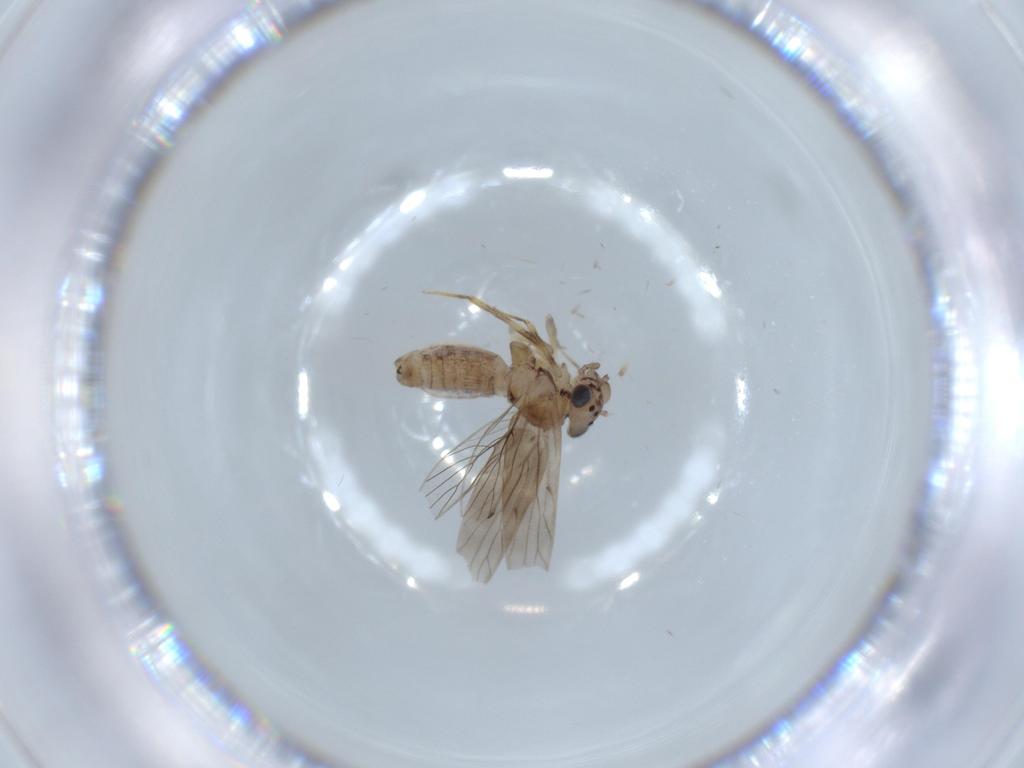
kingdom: Animalia
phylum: Arthropoda
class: Insecta
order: Psocodea
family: Lepidopsocidae
